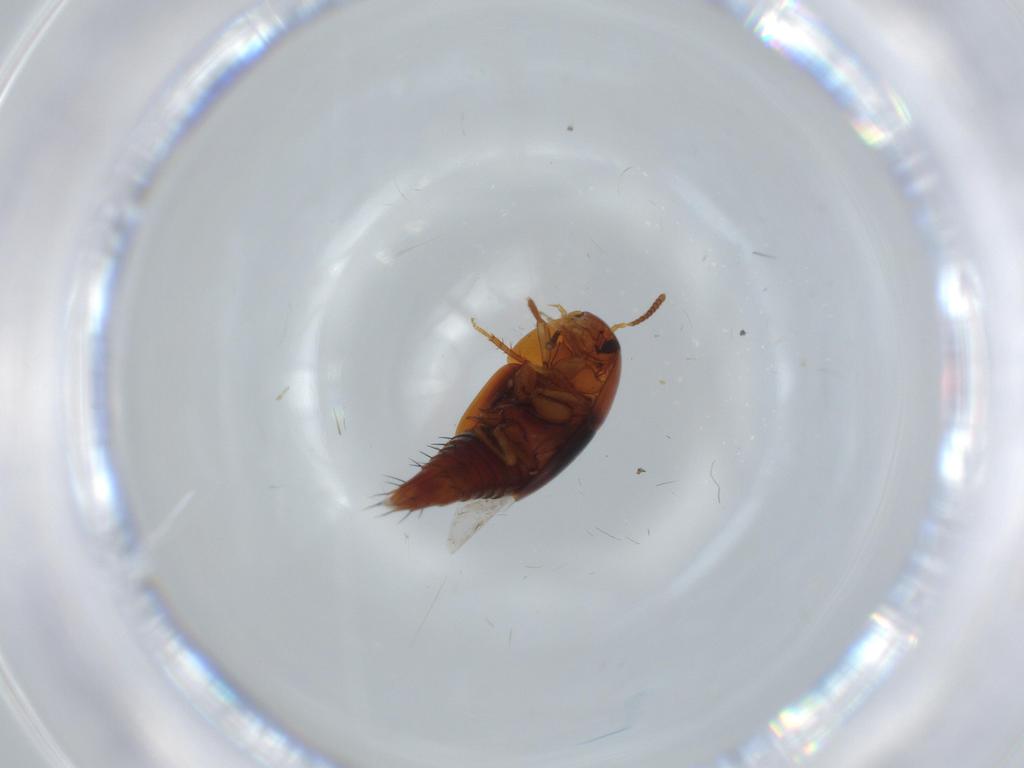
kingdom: Animalia
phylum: Arthropoda
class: Insecta
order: Coleoptera
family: Staphylinidae
